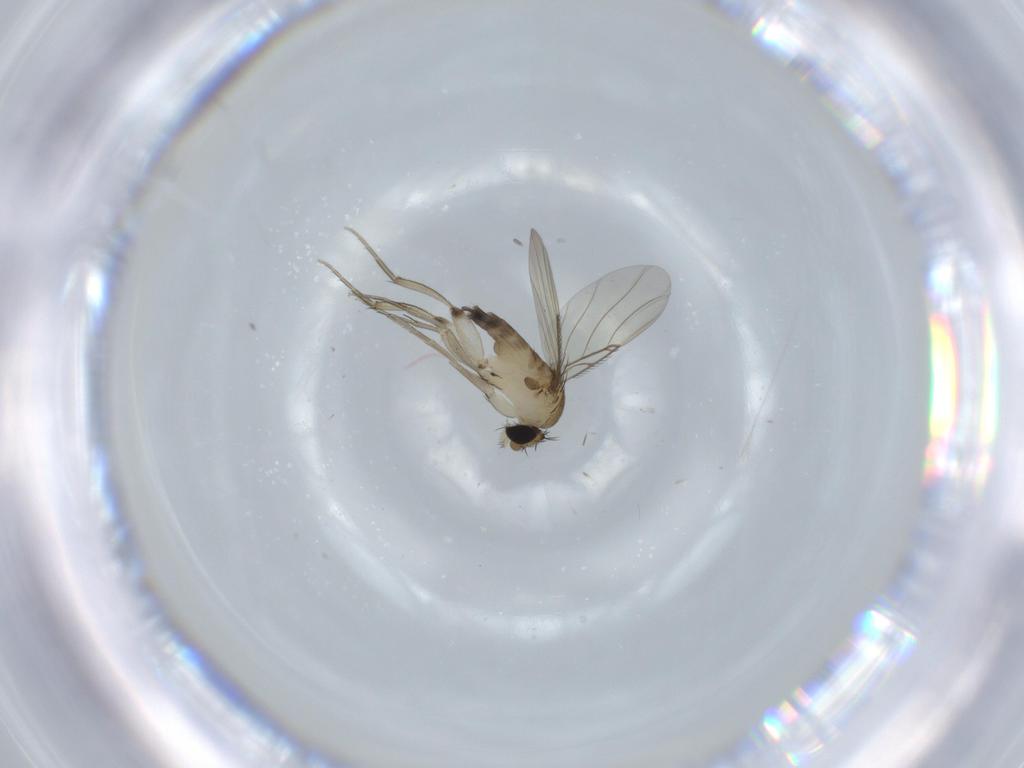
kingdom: Animalia
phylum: Arthropoda
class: Insecta
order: Diptera
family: Phoridae
